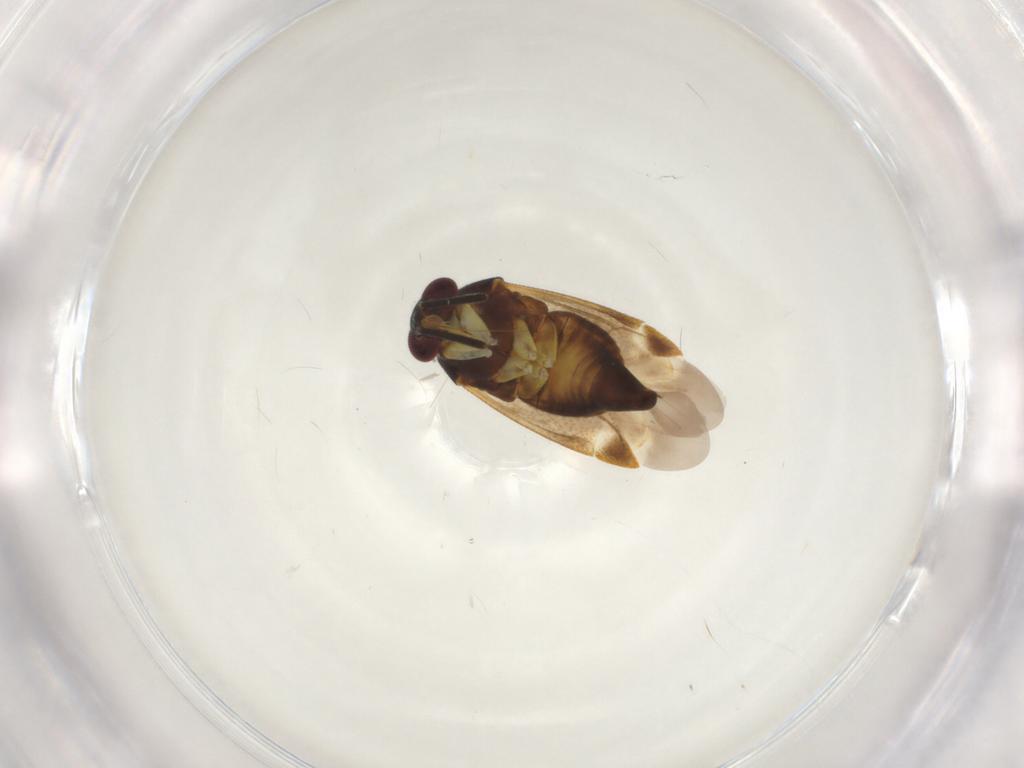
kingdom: Animalia
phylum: Arthropoda
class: Insecta
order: Hemiptera
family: Miridae
